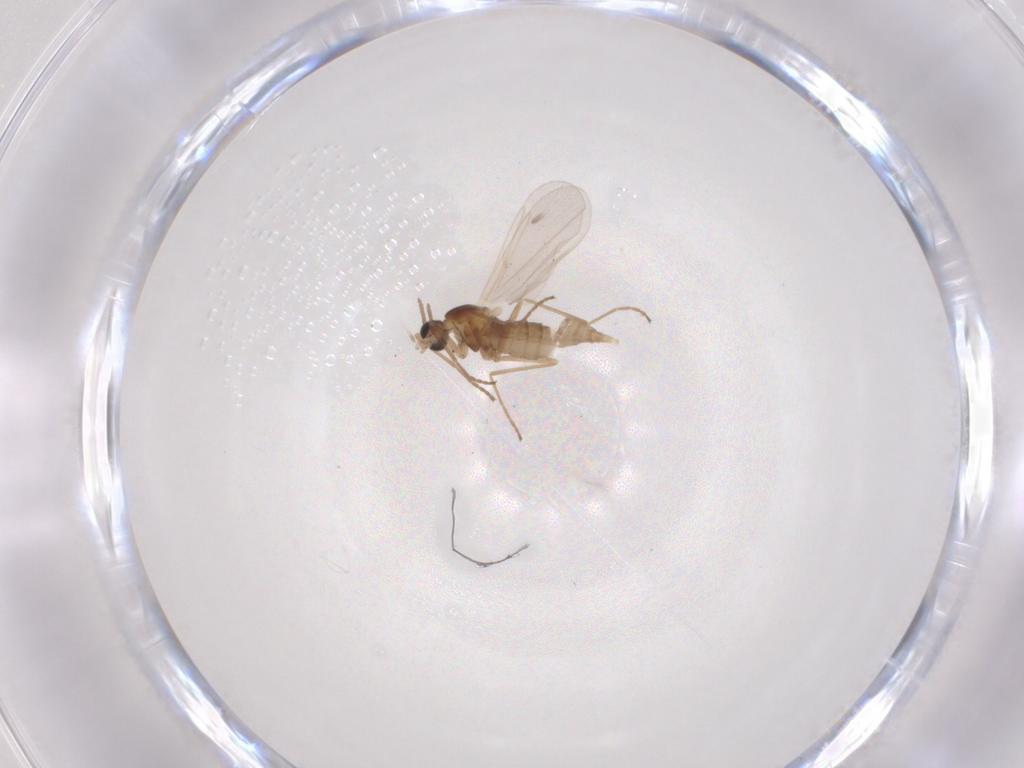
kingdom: Animalia
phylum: Arthropoda
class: Insecta
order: Diptera
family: Cecidomyiidae
